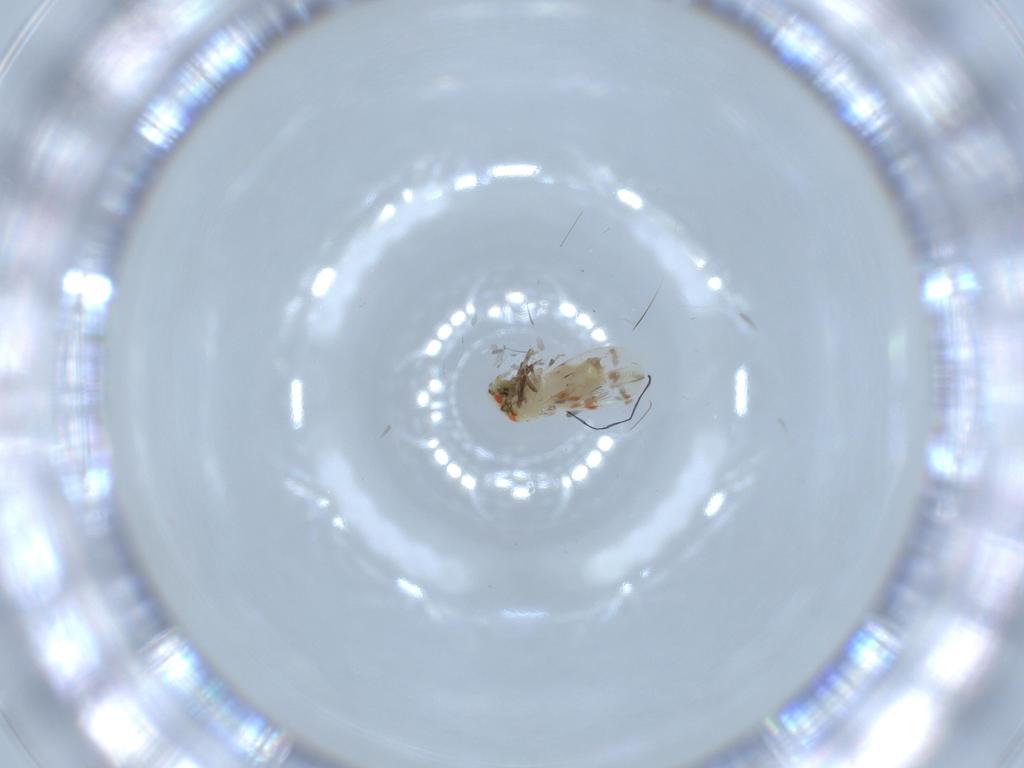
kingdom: Animalia
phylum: Arthropoda
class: Insecta
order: Hemiptera
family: Aleyrodidae
